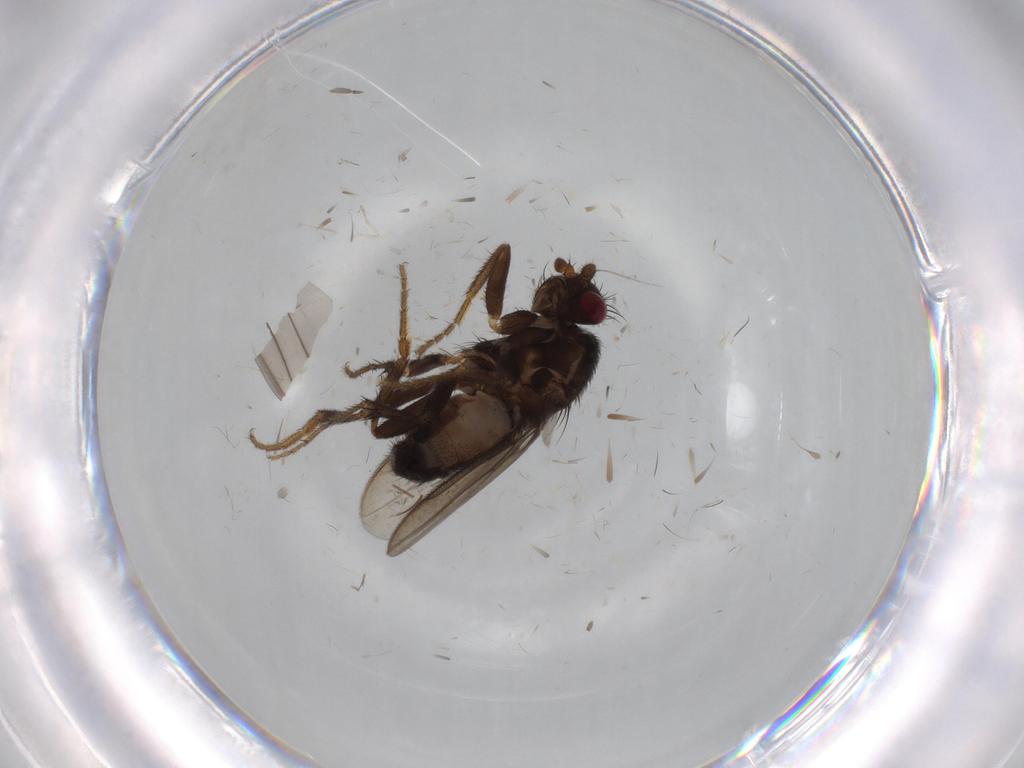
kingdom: Animalia
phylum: Arthropoda
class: Insecta
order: Diptera
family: Sphaeroceridae
